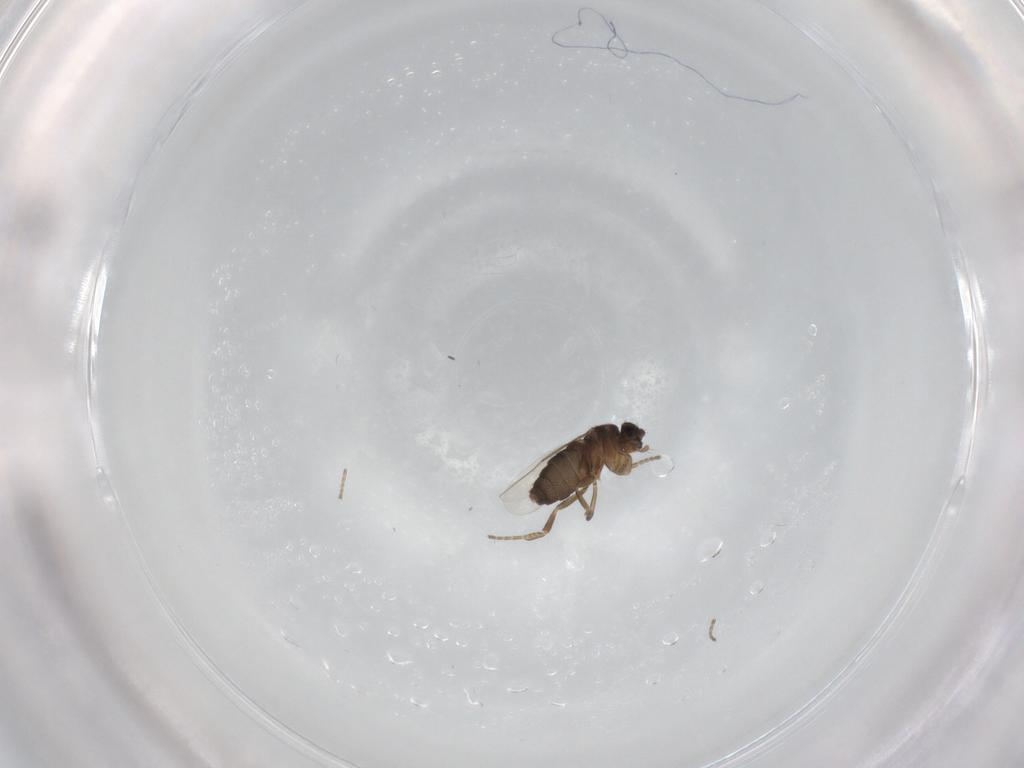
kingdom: Animalia
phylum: Arthropoda
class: Insecta
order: Diptera
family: Phoridae
